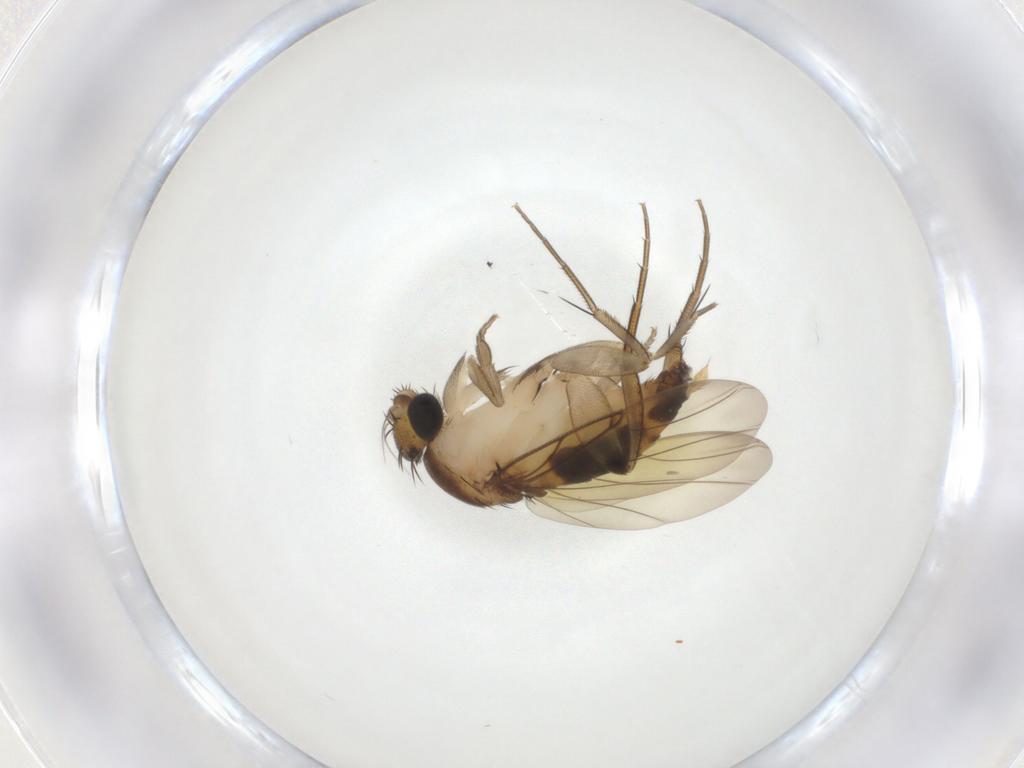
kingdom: Animalia
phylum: Arthropoda
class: Insecta
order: Diptera
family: Phoridae
